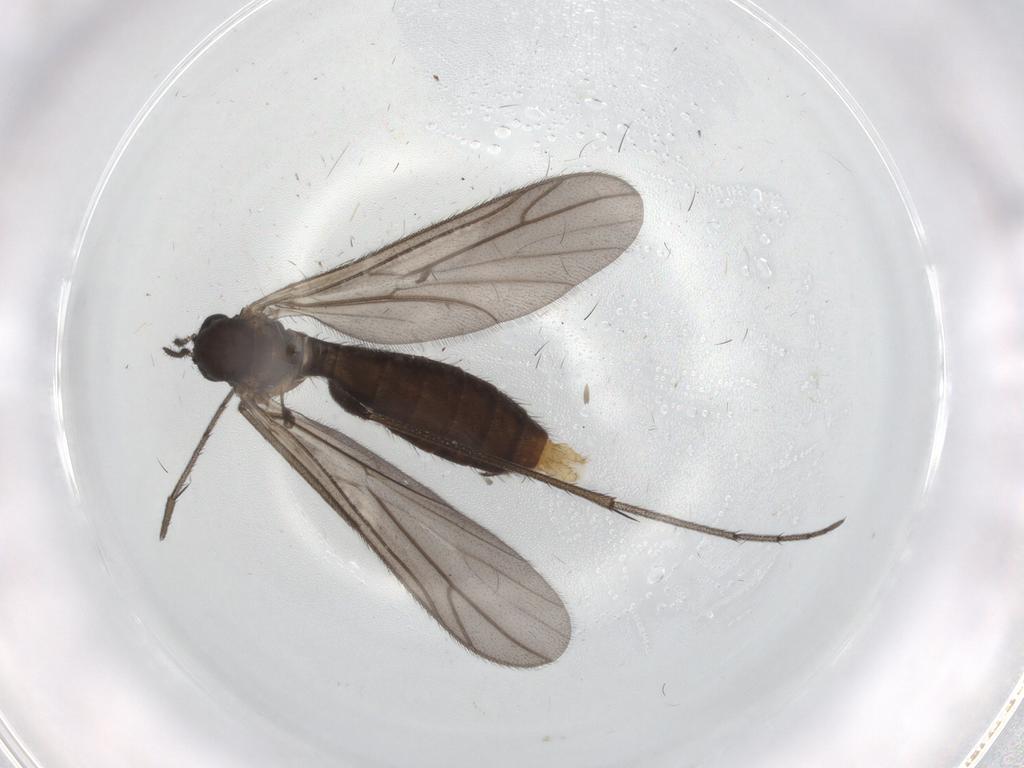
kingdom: Animalia
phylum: Arthropoda
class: Insecta
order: Diptera
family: Ditomyiidae
